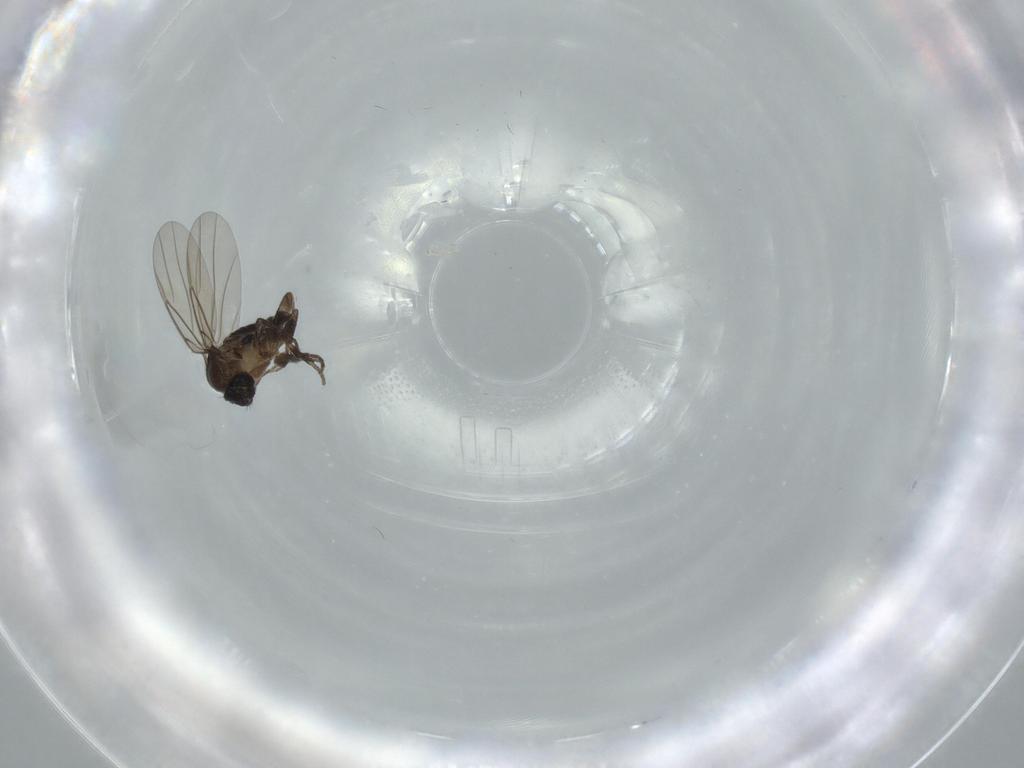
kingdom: Animalia
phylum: Arthropoda
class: Insecta
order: Diptera
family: Phoridae
